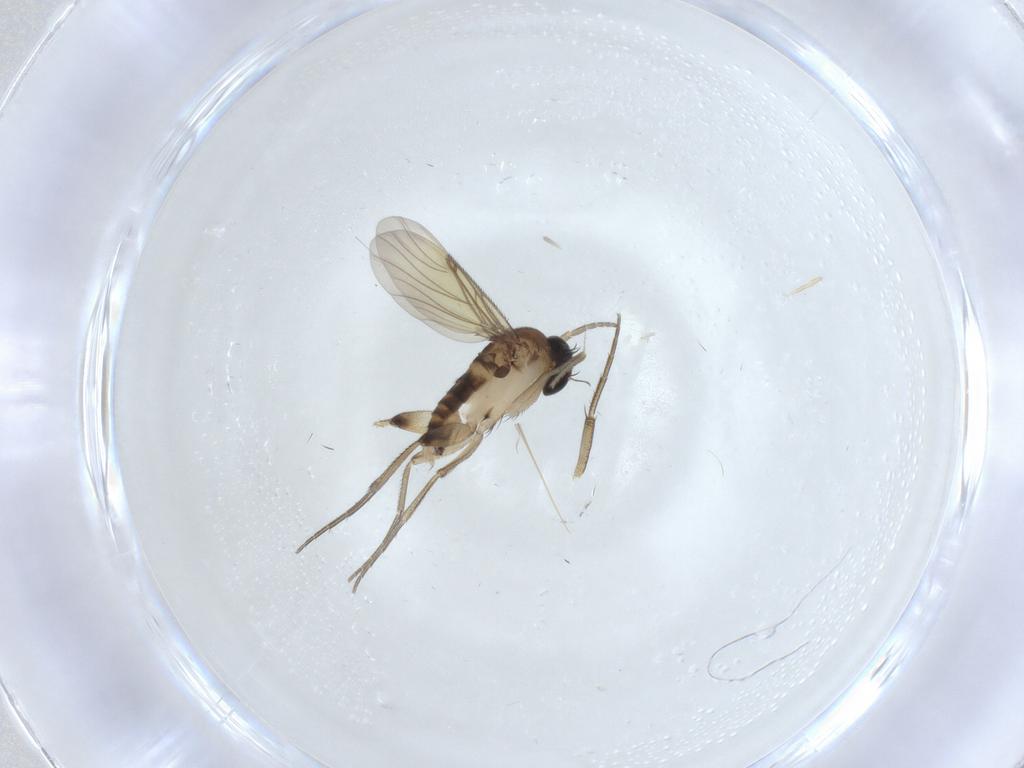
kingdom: Animalia
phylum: Arthropoda
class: Insecta
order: Diptera
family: Phoridae
